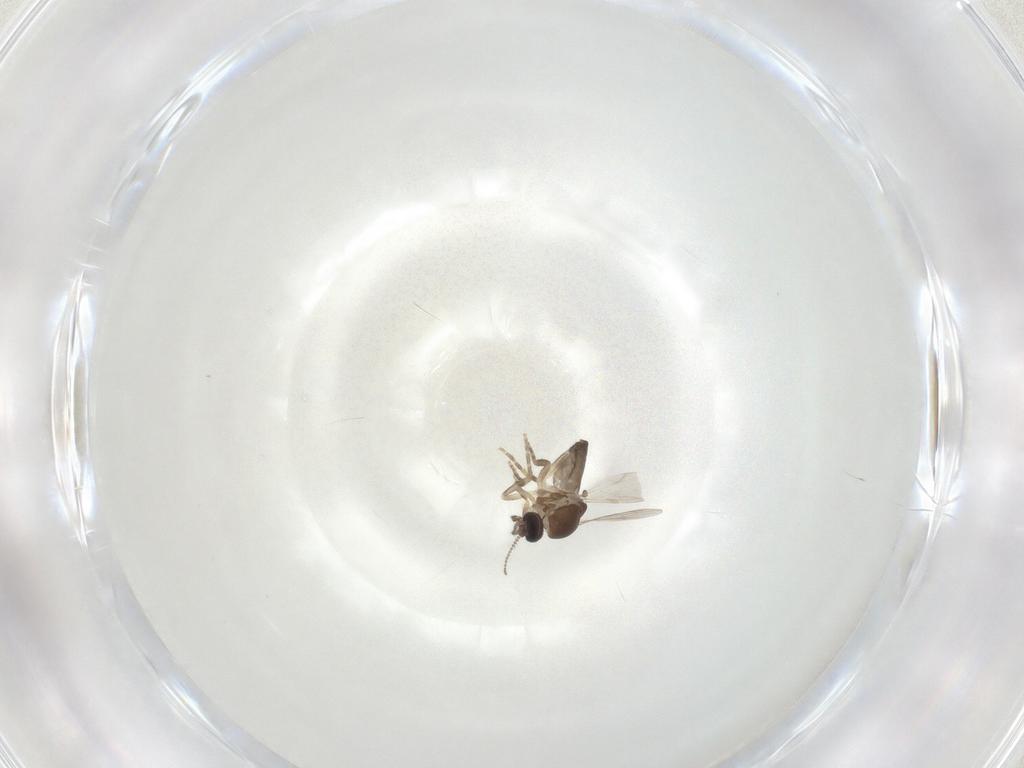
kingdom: Animalia
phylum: Arthropoda
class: Insecta
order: Diptera
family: Ceratopogonidae
